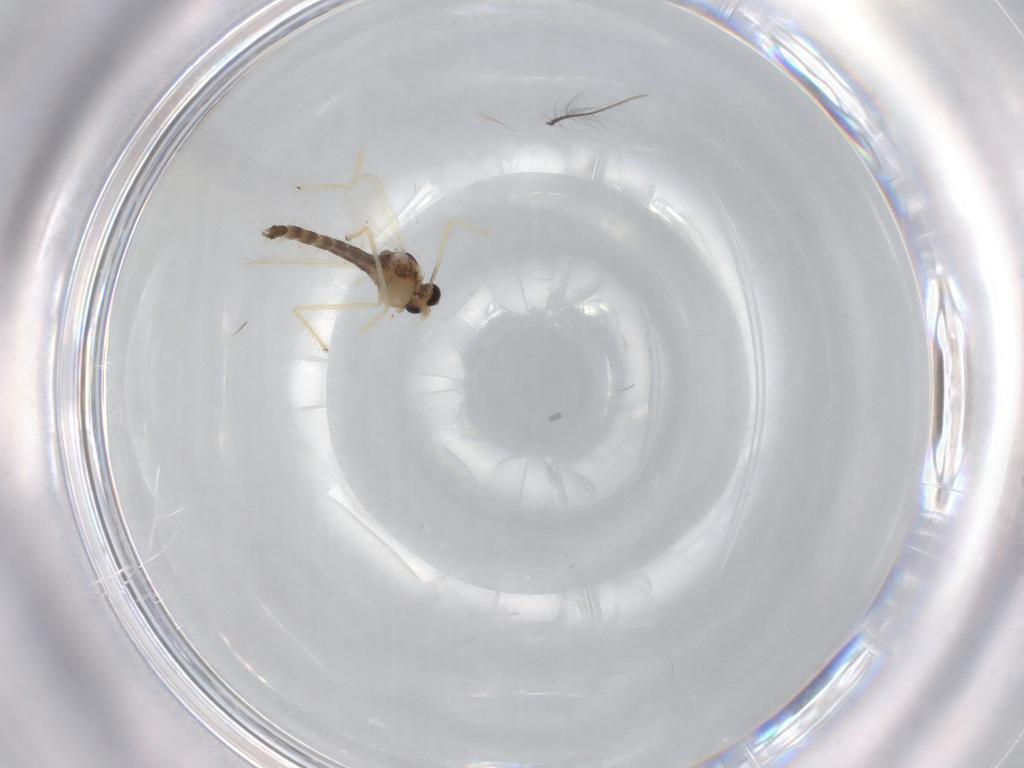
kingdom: Animalia
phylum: Arthropoda
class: Insecta
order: Diptera
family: Chironomidae
